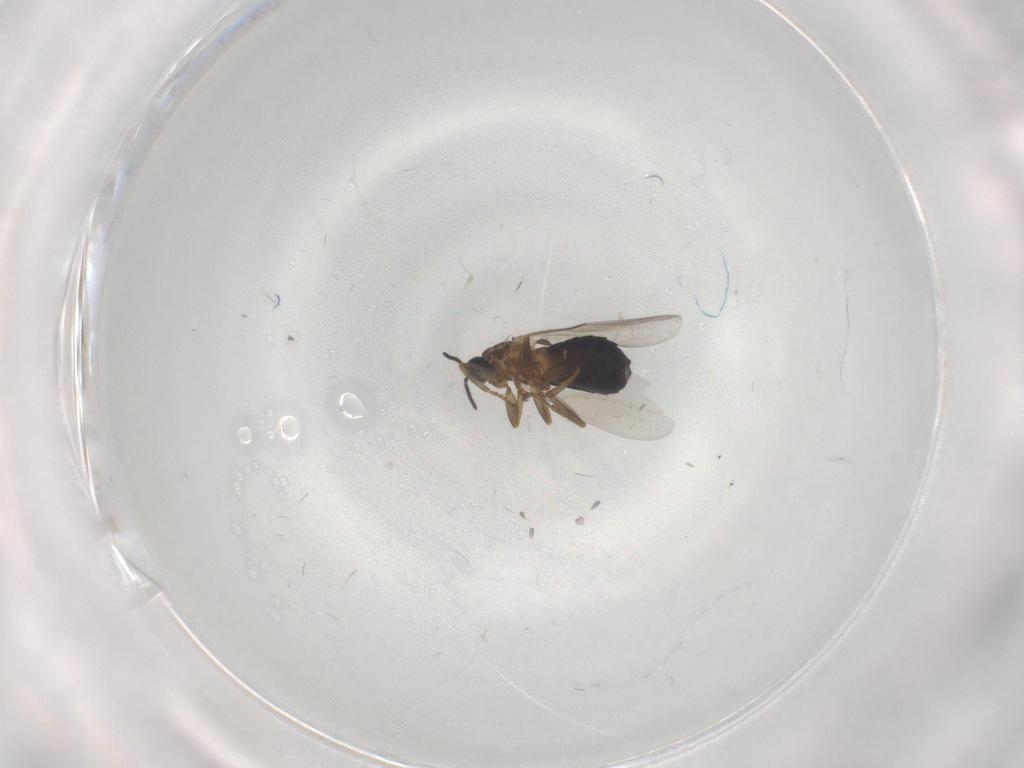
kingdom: Animalia
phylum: Arthropoda
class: Insecta
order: Diptera
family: Scatopsidae
